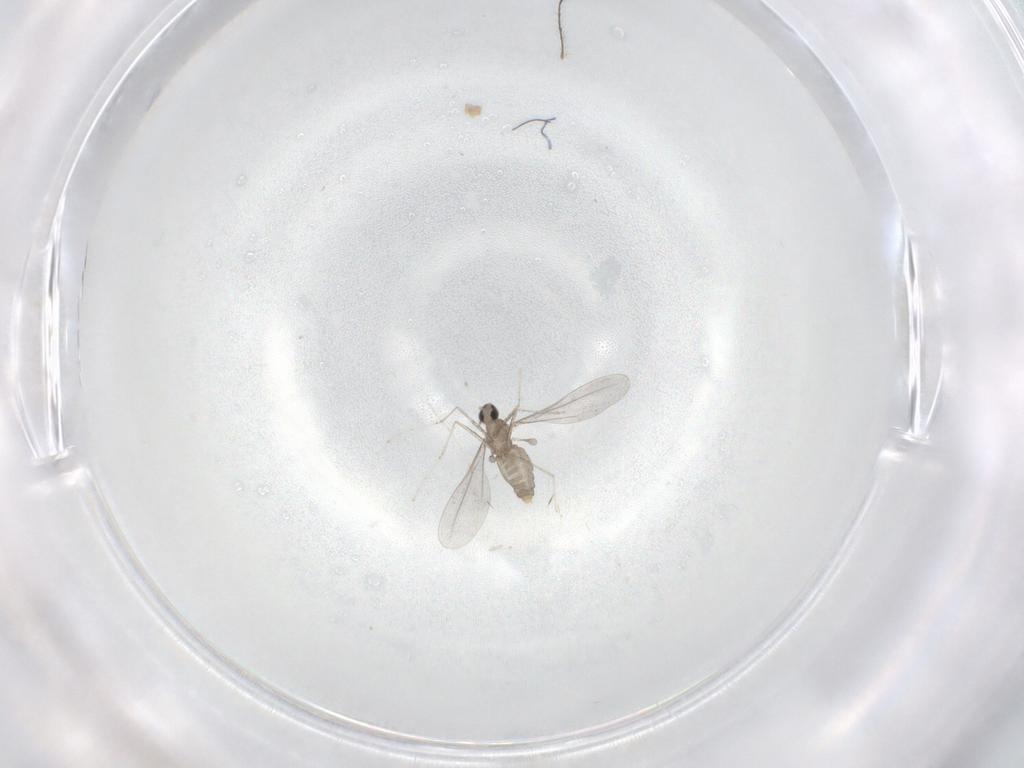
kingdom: Animalia
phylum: Arthropoda
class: Insecta
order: Diptera
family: Cecidomyiidae
